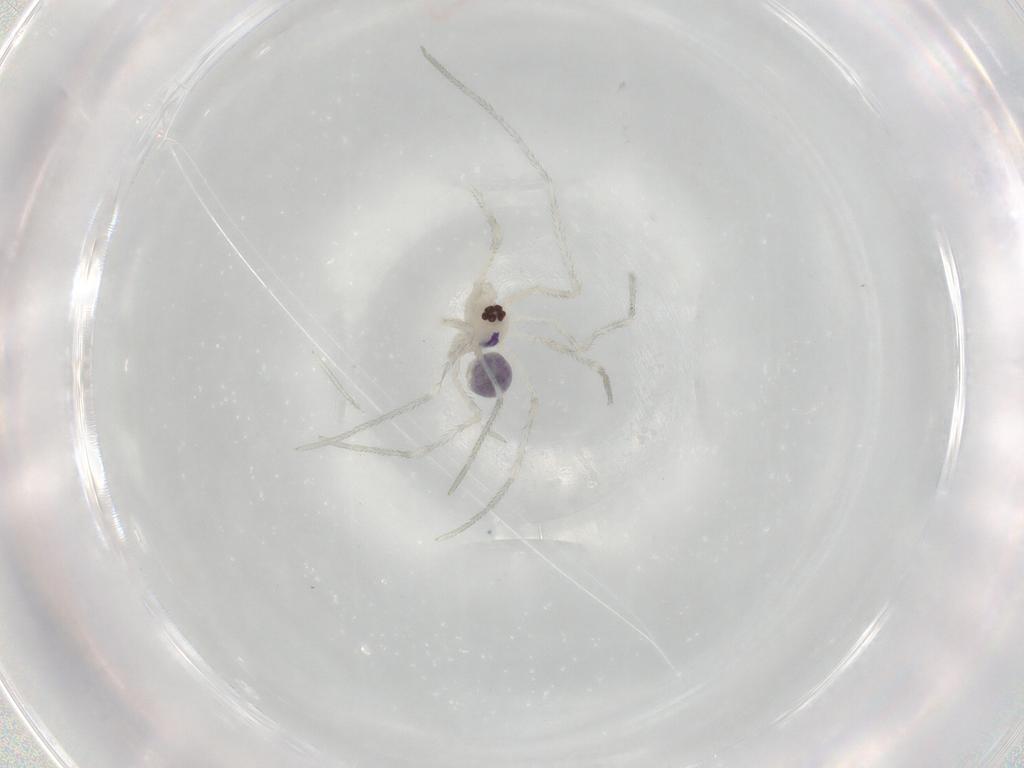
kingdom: Animalia
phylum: Arthropoda
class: Arachnida
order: Araneae
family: Pholcidae
